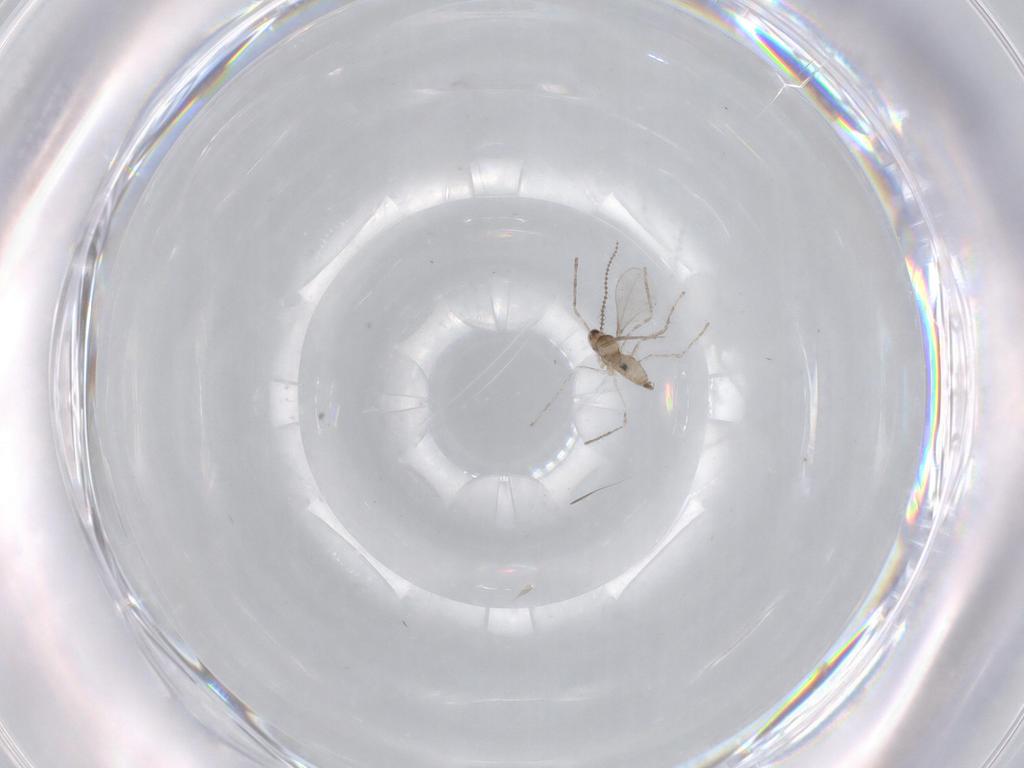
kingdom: Animalia
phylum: Arthropoda
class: Insecta
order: Diptera
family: Cecidomyiidae
